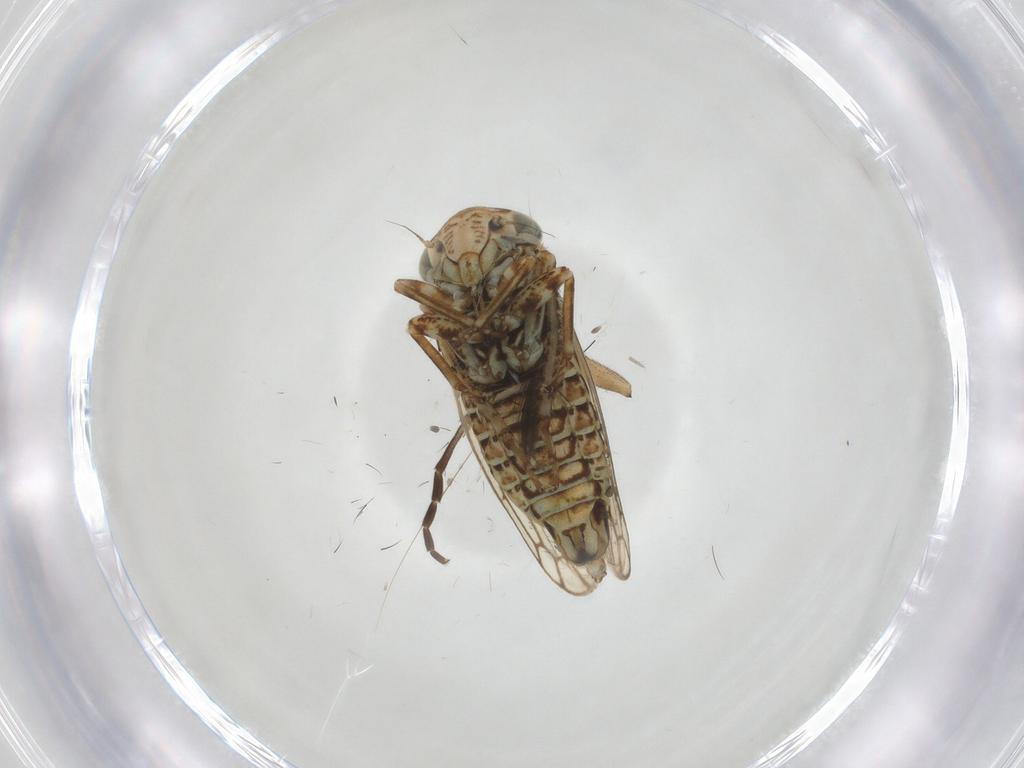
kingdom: Animalia
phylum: Arthropoda
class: Insecta
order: Hemiptera
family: Cicadellidae
